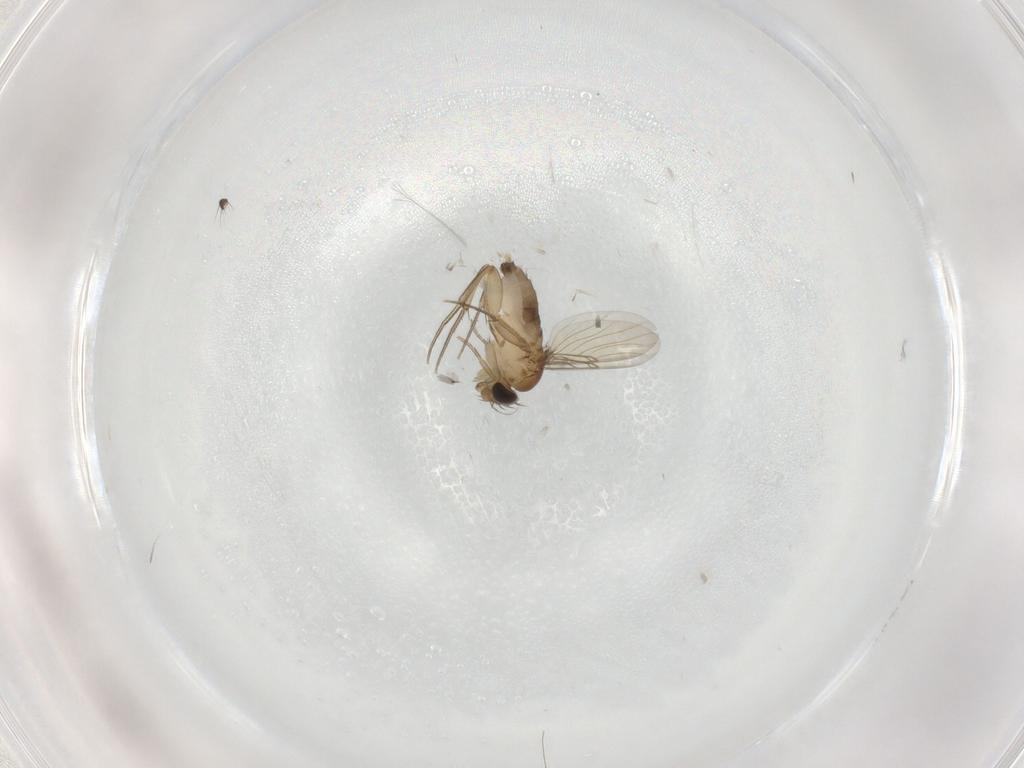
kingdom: Animalia
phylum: Arthropoda
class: Insecta
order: Diptera
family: Phoridae
